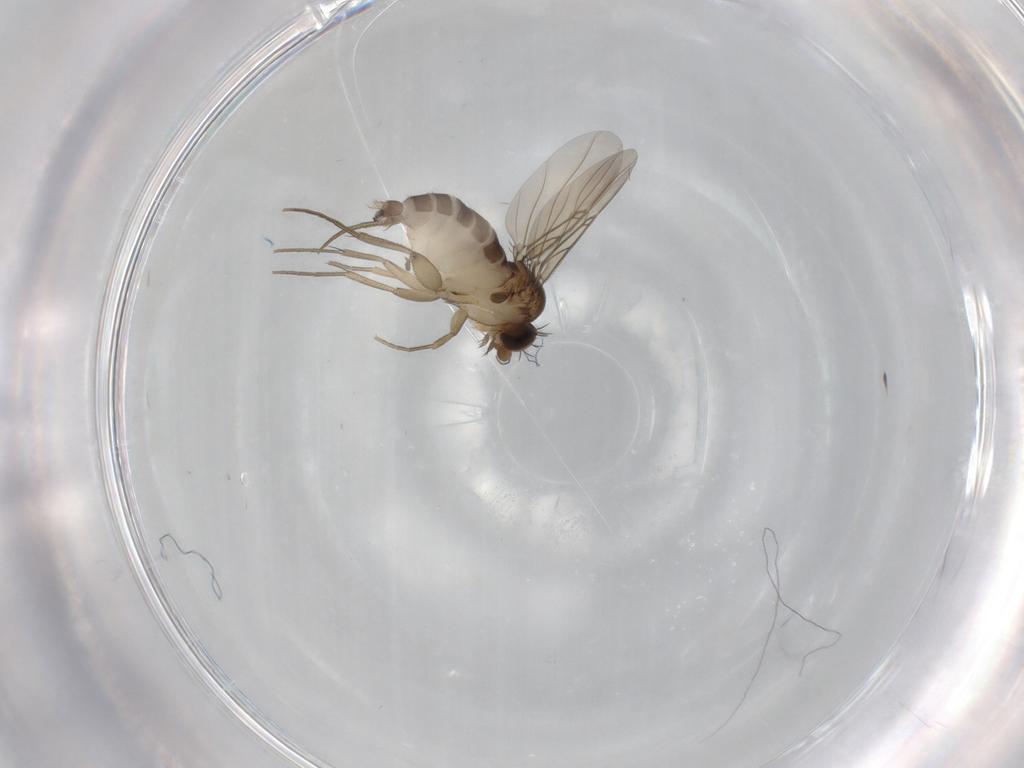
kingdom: Animalia
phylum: Arthropoda
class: Insecta
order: Diptera
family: Phoridae
